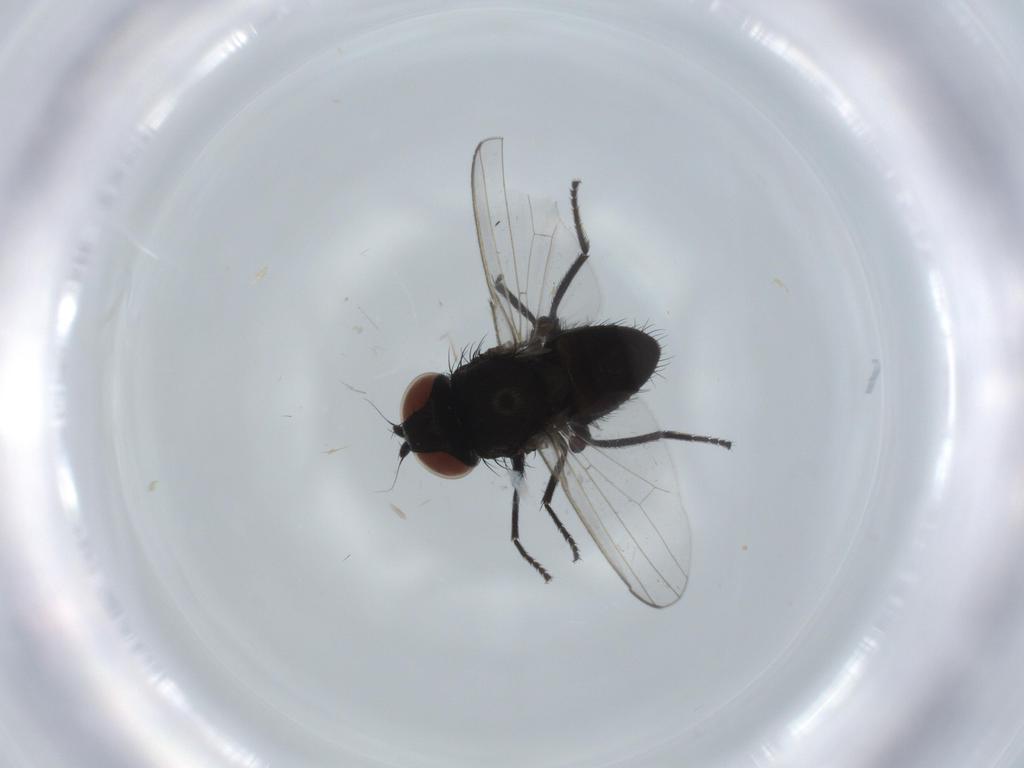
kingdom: Animalia
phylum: Arthropoda
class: Insecta
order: Diptera
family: Milichiidae
